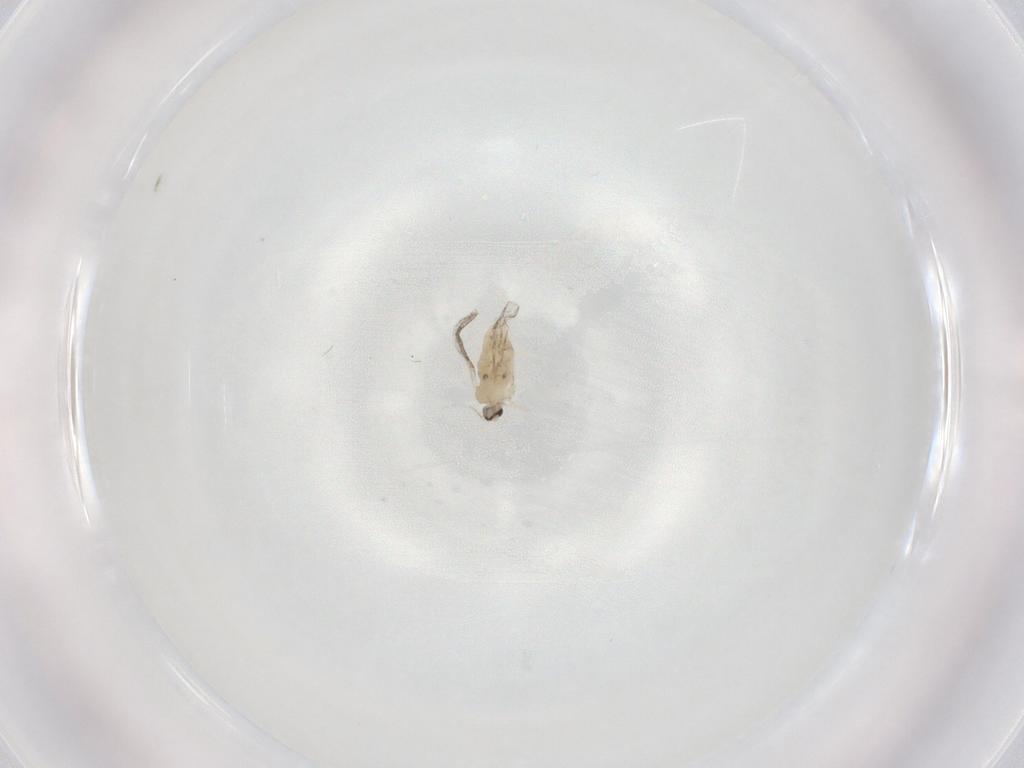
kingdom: Animalia
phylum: Arthropoda
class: Insecta
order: Diptera
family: Cecidomyiidae
